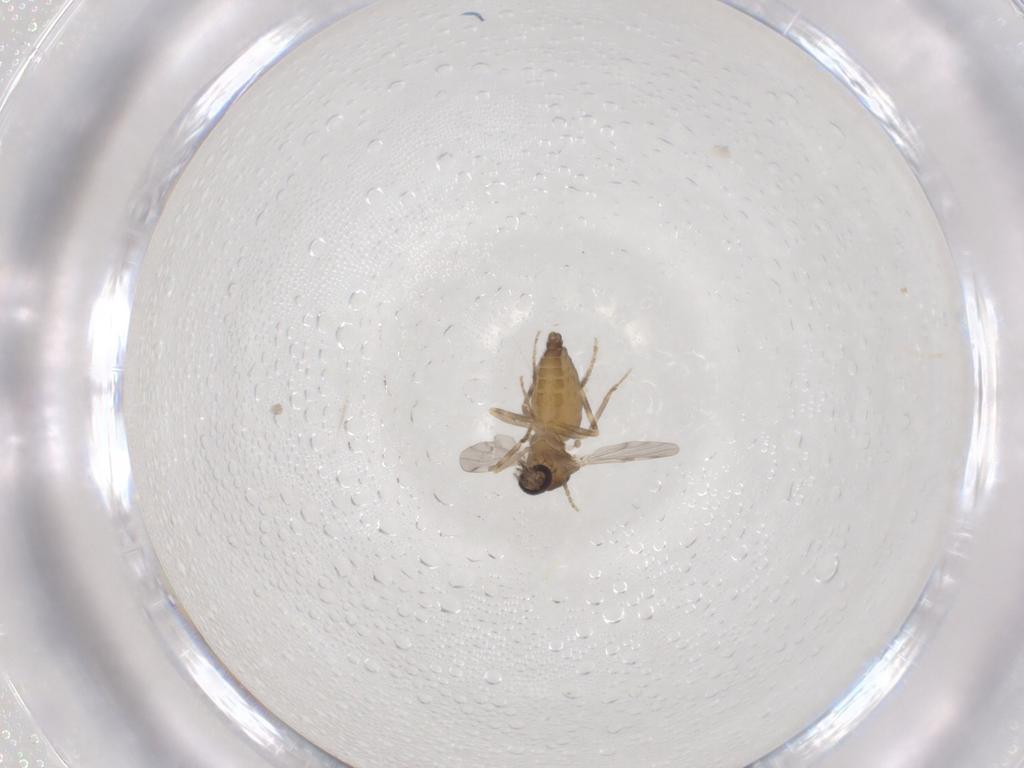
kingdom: Animalia
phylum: Arthropoda
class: Insecta
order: Diptera
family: Ceratopogonidae
